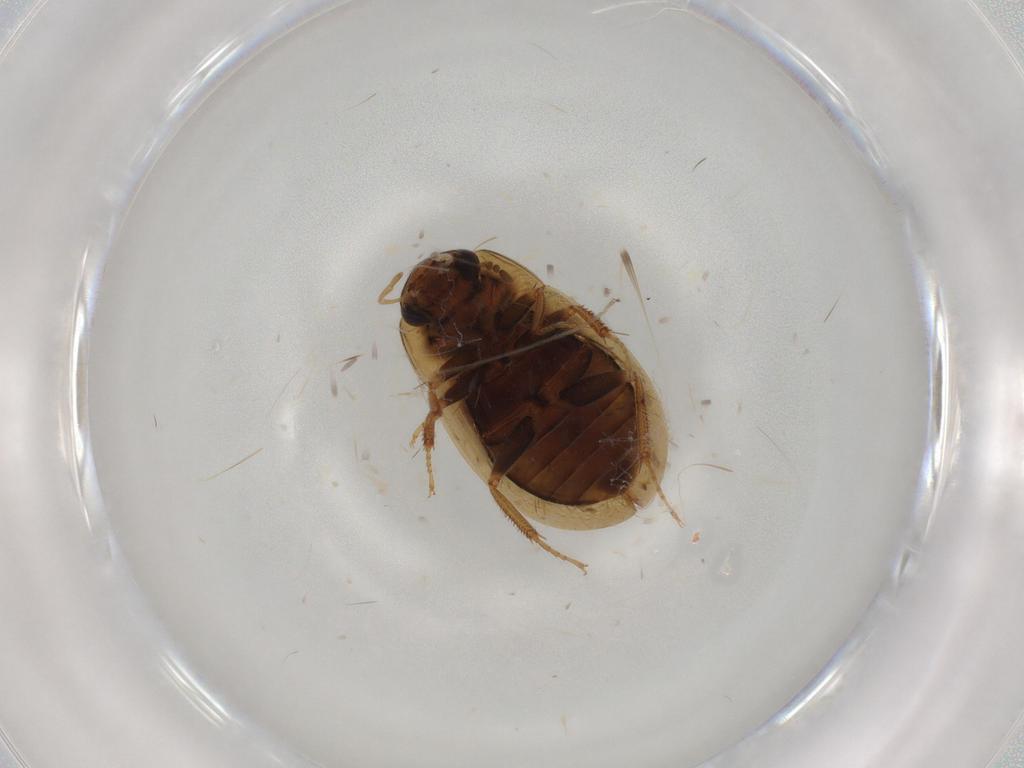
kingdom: Animalia
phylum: Arthropoda
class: Insecta
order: Coleoptera
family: Hydrophilidae
